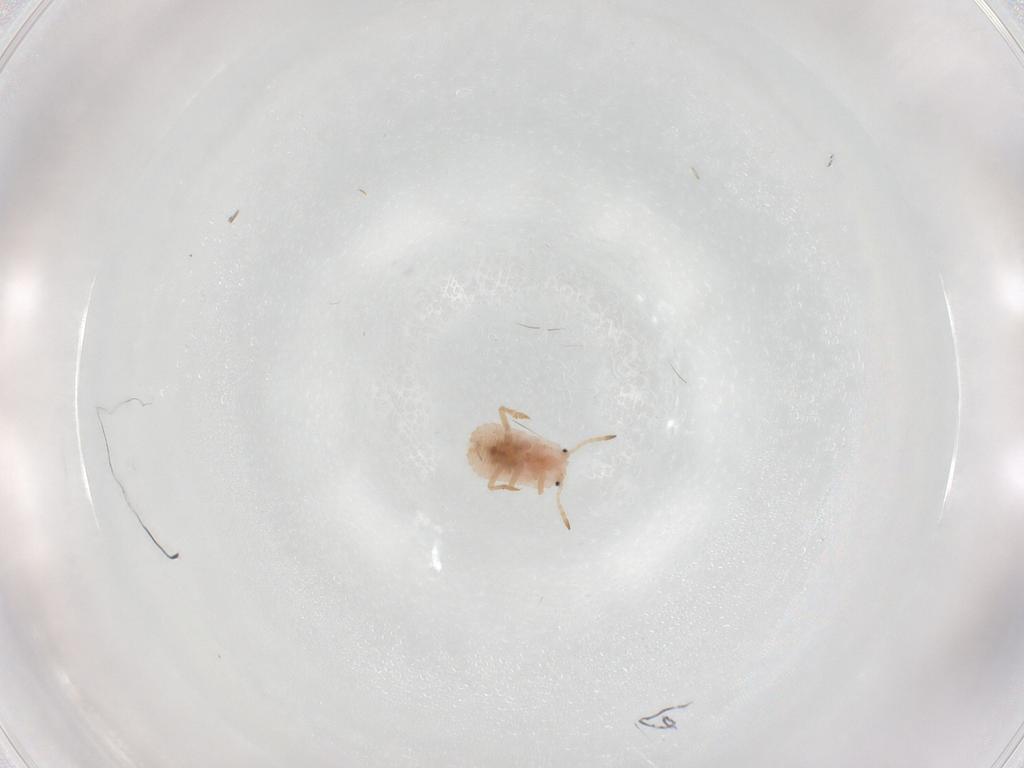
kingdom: Animalia
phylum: Arthropoda
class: Insecta
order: Hemiptera
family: Coccoidea_incertae_sedis
